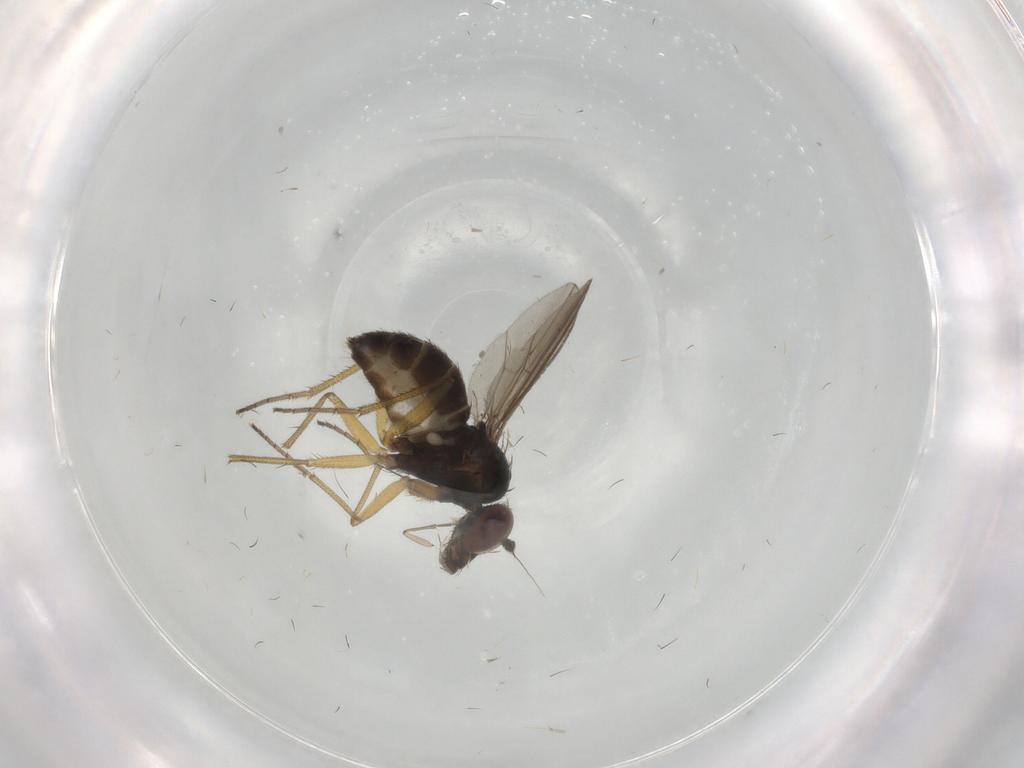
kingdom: Animalia
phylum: Arthropoda
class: Insecta
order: Diptera
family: Dolichopodidae
